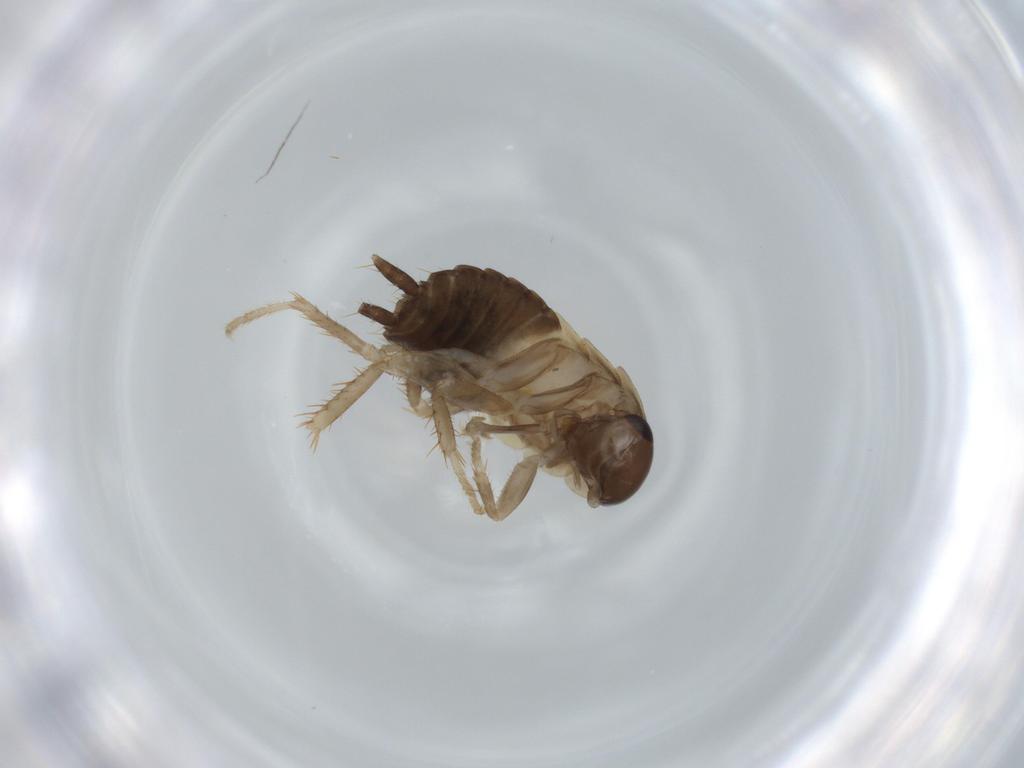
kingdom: Animalia
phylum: Arthropoda
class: Insecta
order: Blattodea
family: Ectobiidae
